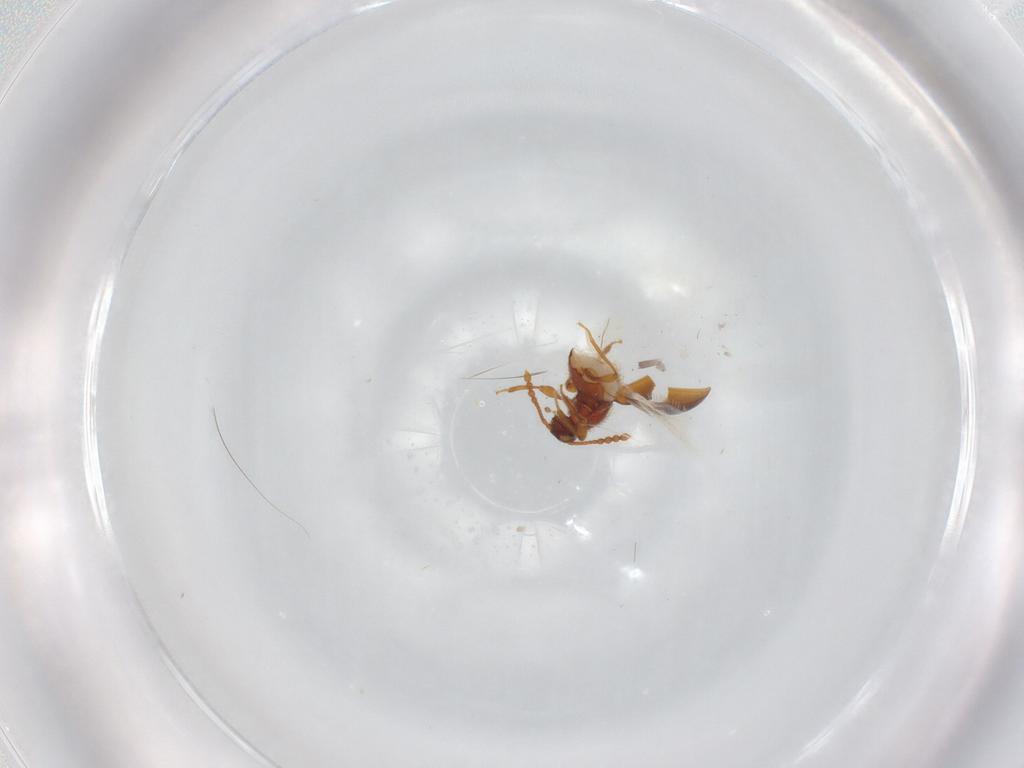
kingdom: Animalia
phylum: Arthropoda
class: Insecta
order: Coleoptera
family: Staphylinidae
